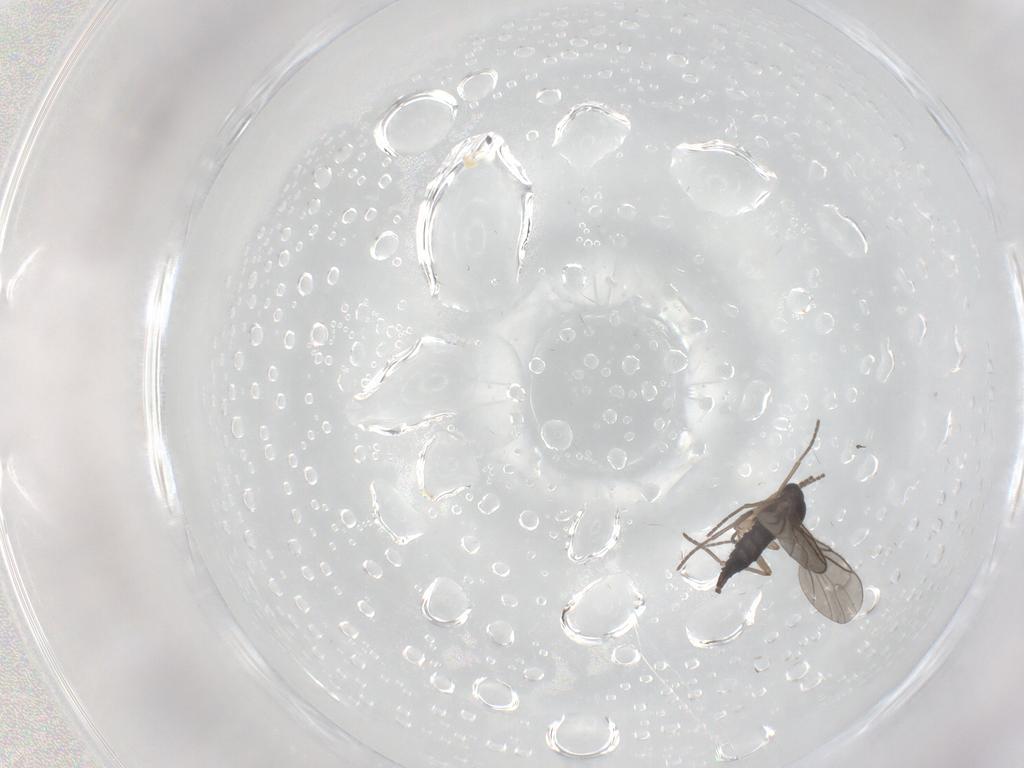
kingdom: Animalia
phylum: Arthropoda
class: Insecta
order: Diptera
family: Sciaridae
